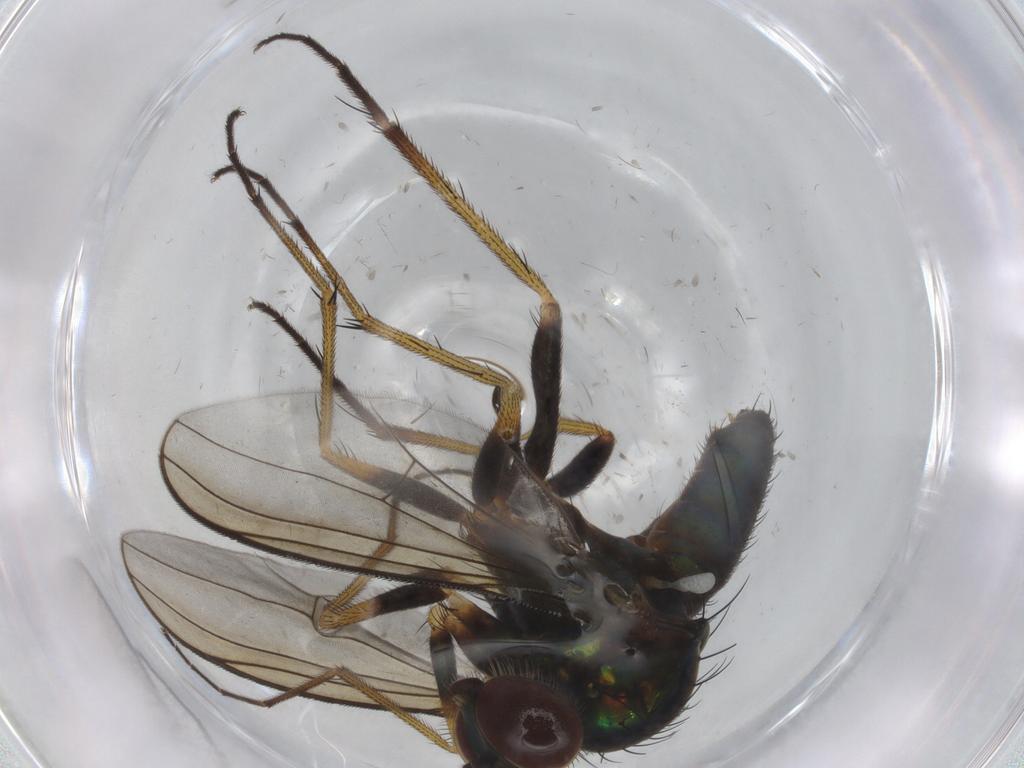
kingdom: Animalia
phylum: Arthropoda
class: Insecta
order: Diptera
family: Dolichopodidae
